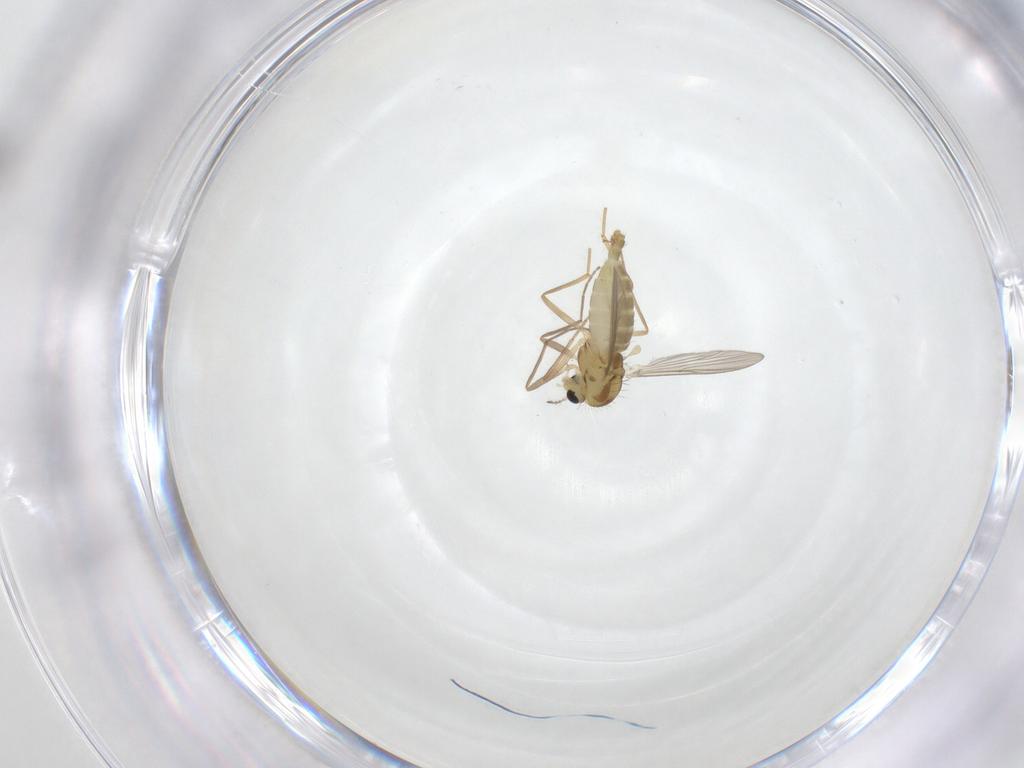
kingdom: Animalia
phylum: Arthropoda
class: Insecta
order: Diptera
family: Chironomidae
